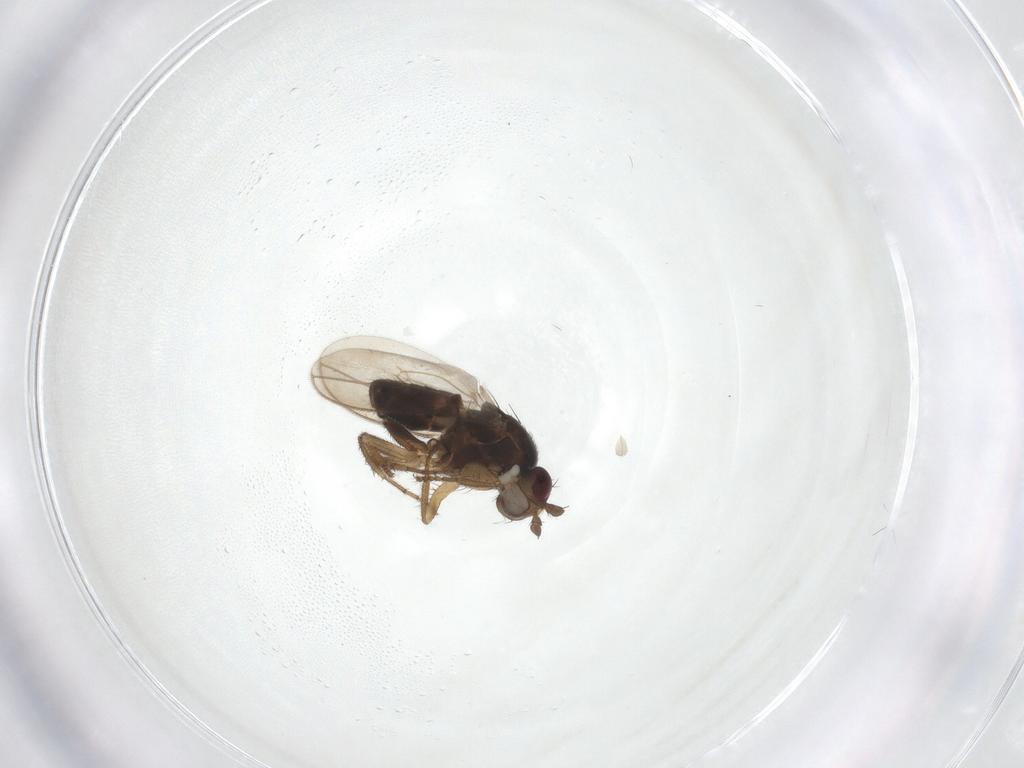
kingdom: Animalia
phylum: Arthropoda
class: Insecta
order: Diptera
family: Sphaeroceridae
